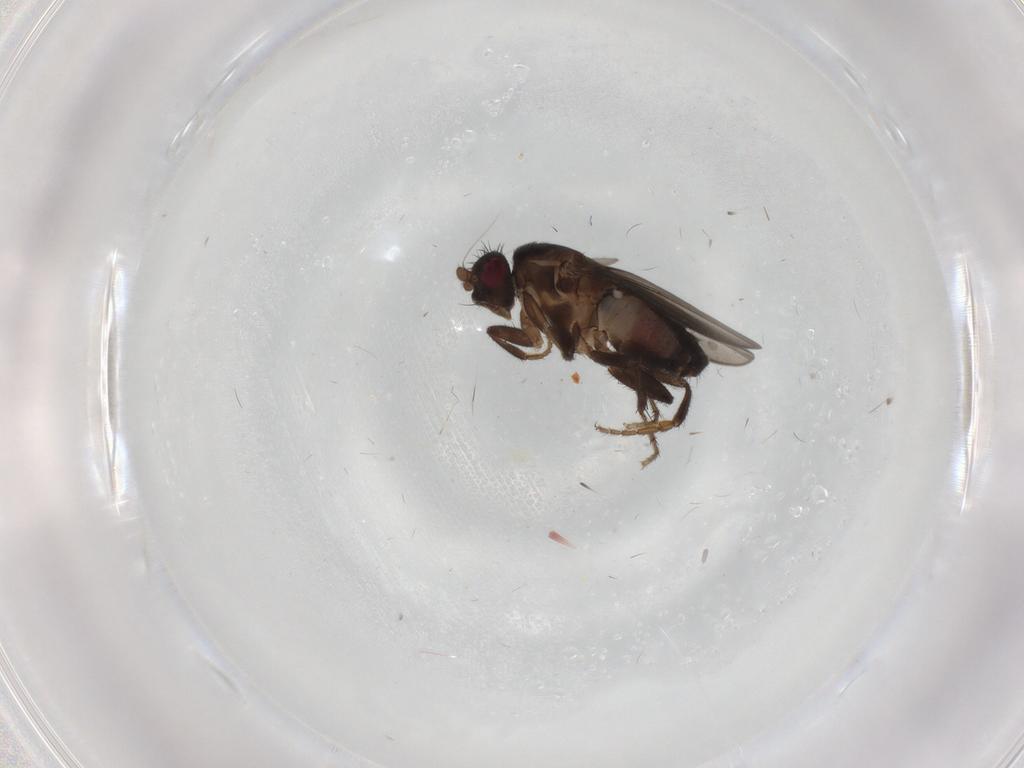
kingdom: Animalia
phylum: Arthropoda
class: Insecta
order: Diptera
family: Sphaeroceridae
